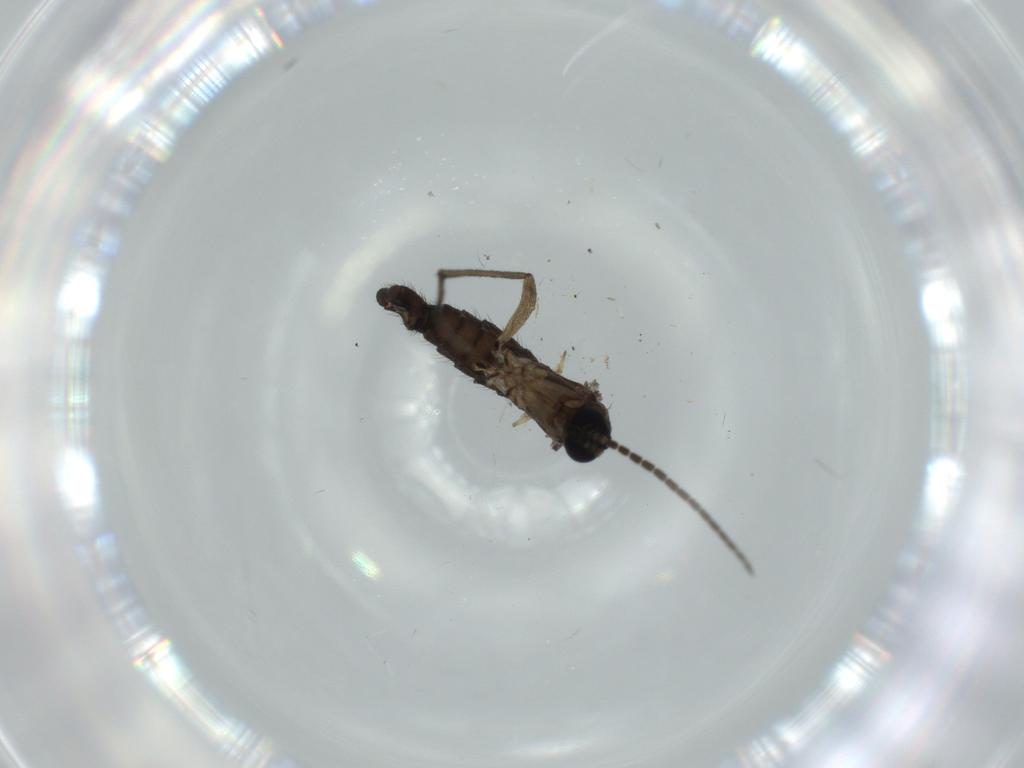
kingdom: Animalia
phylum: Arthropoda
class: Insecta
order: Diptera
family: Sciaridae
